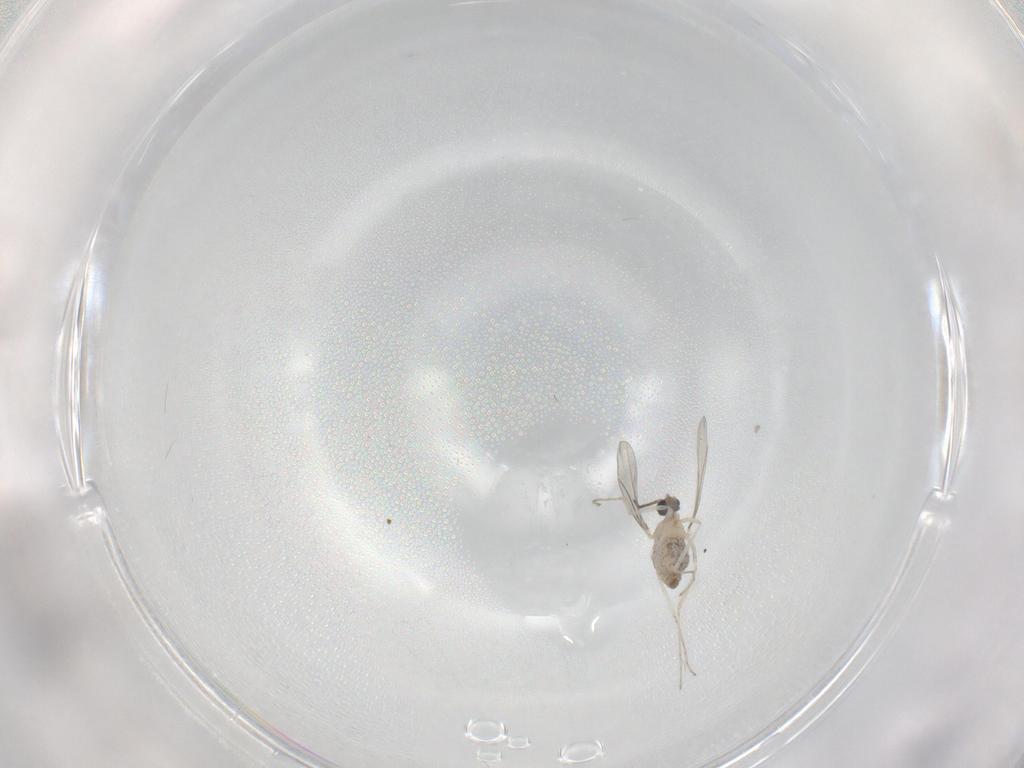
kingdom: Animalia
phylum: Arthropoda
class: Insecta
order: Diptera
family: Cecidomyiidae
